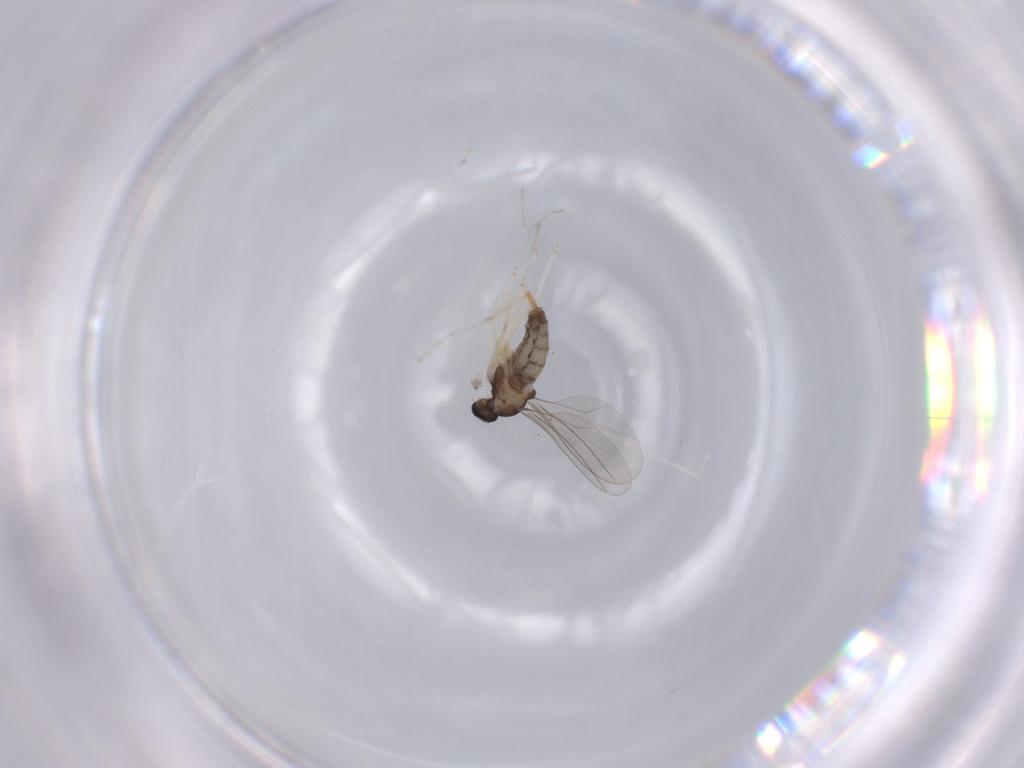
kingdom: Animalia
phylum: Arthropoda
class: Insecta
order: Diptera
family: Cecidomyiidae
